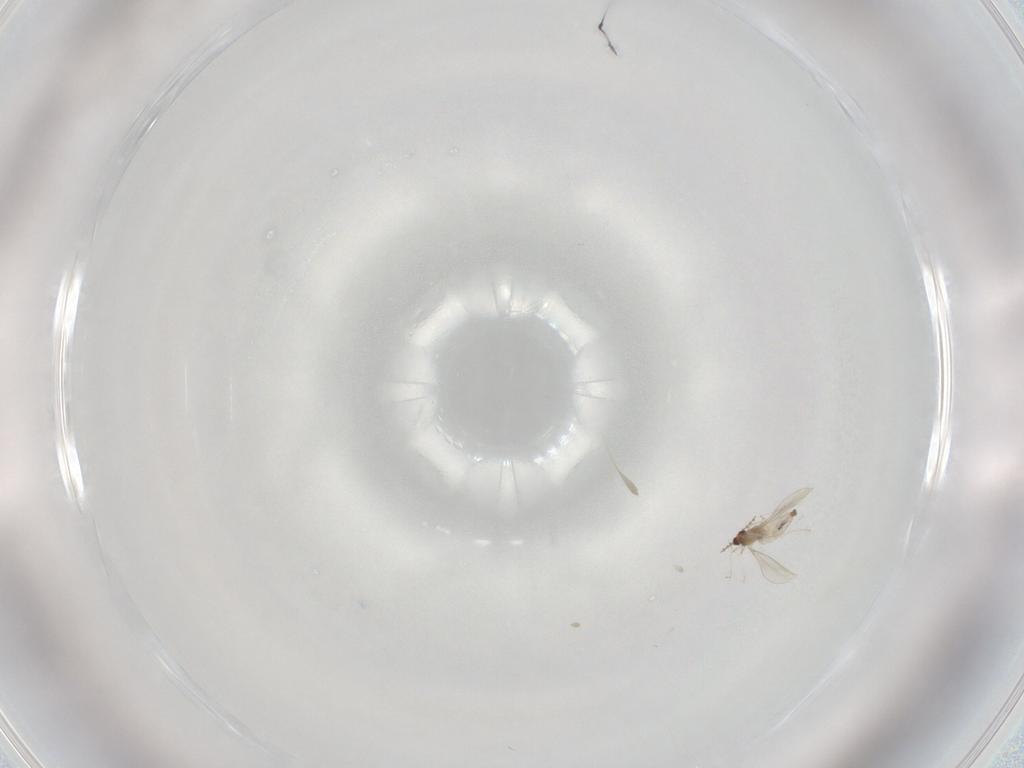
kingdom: Animalia
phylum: Arthropoda
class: Insecta
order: Diptera
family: Cecidomyiidae
